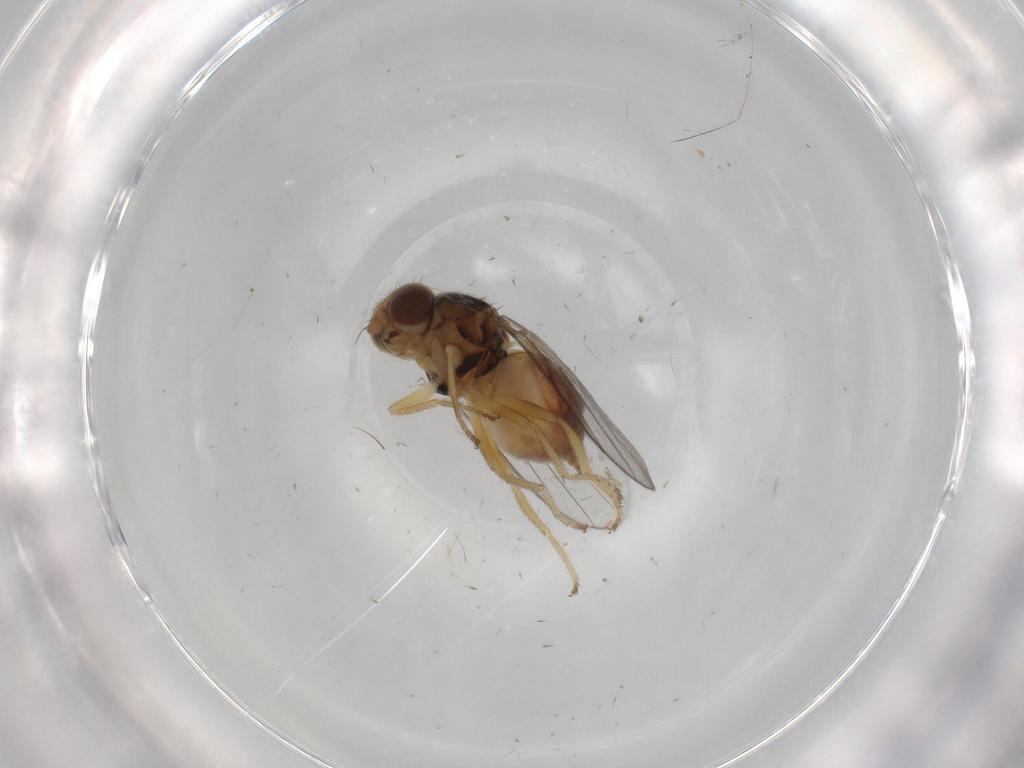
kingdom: Animalia
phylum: Arthropoda
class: Insecta
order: Diptera
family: Chloropidae
